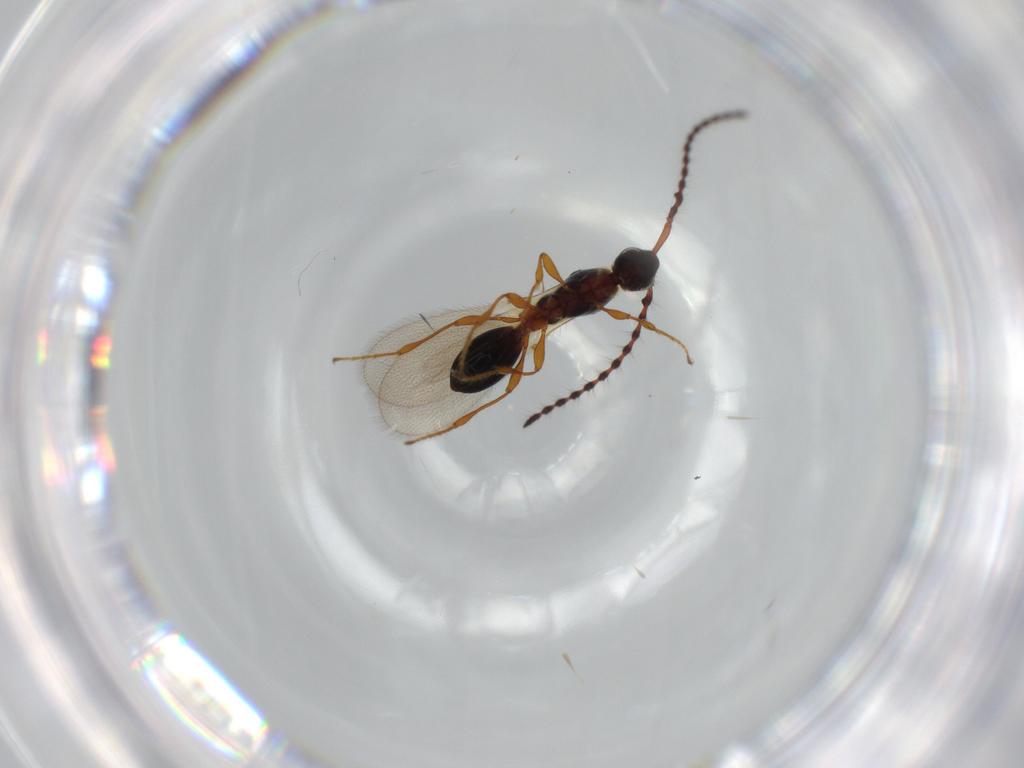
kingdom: Animalia
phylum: Arthropoda
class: Insecta
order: Hymenoptera
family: Diapriidae
